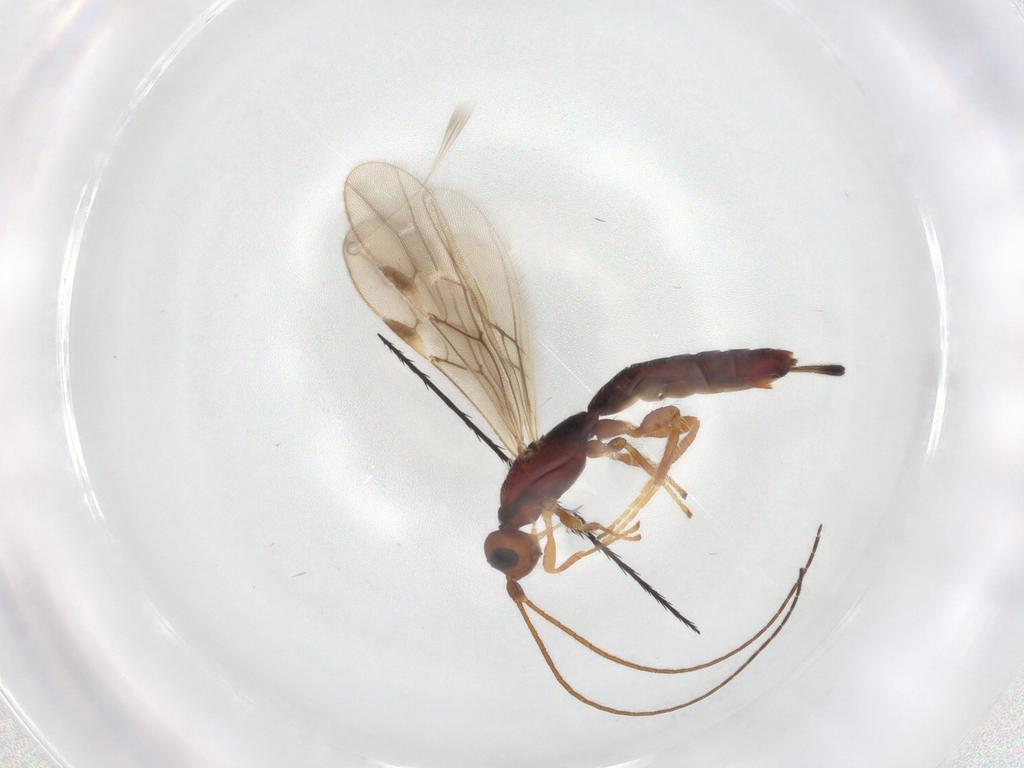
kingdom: Animalia
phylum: Arthropoda
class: Insecta
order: Hymenoptera
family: Braconidae
